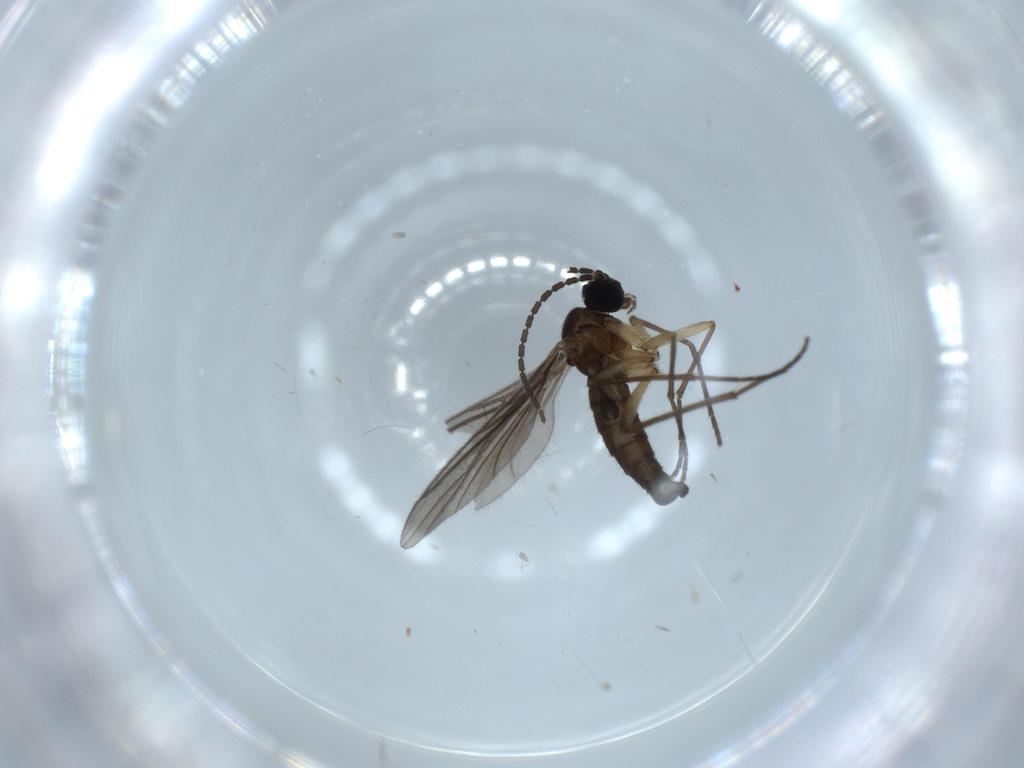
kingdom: Animalia
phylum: Arthropoda
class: Insecta
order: Diptera
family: Sciaridae
